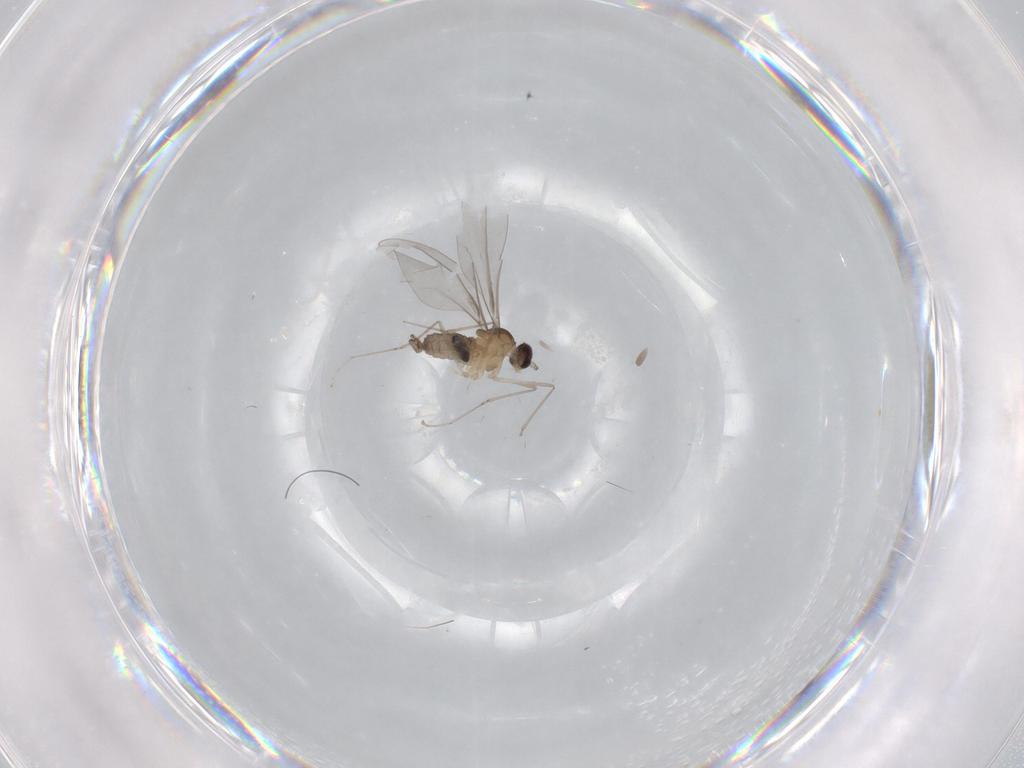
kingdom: Animalia
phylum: Arthropoda
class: Insecta
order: Diptera
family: Cecidomyiidae
